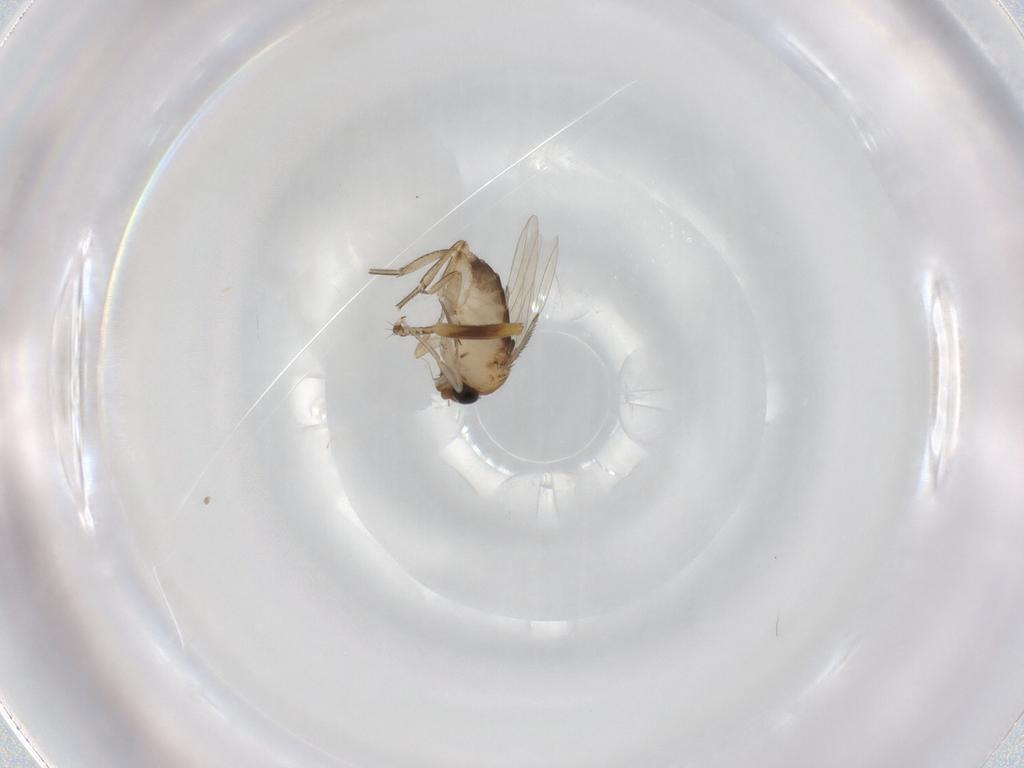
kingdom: Animalia
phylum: Arthropoda
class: Insecta
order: Diptera
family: Pipunculidae
